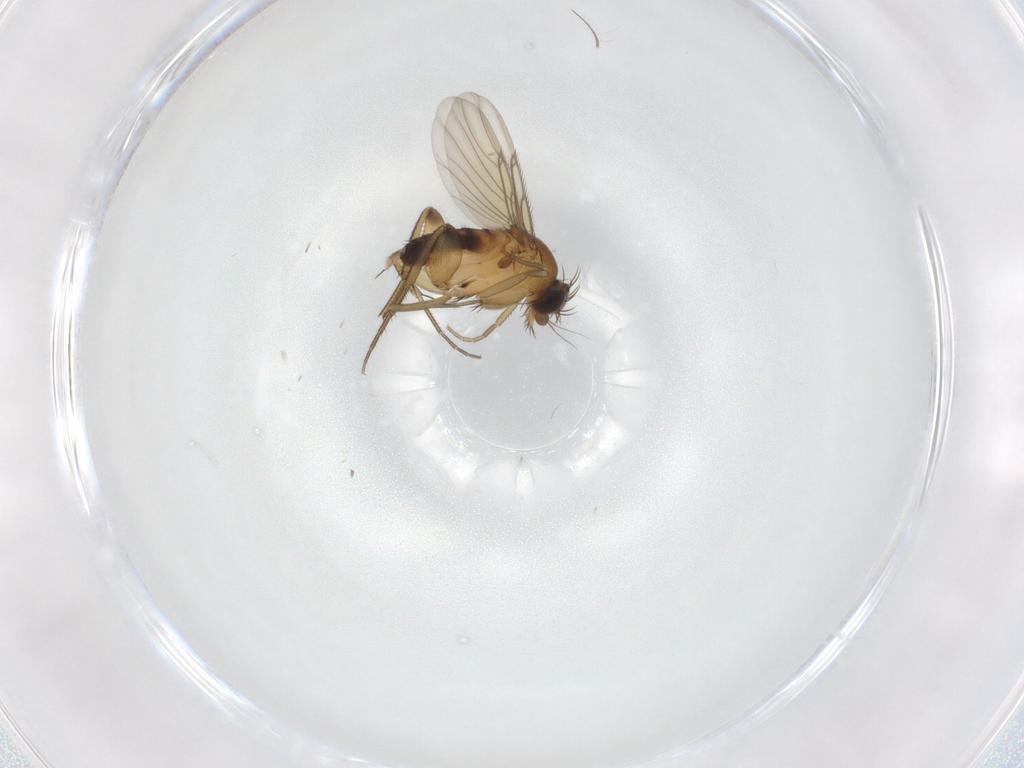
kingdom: Animalia
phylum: Arthropoda
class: Insecta
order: Diptera
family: Phoridae
